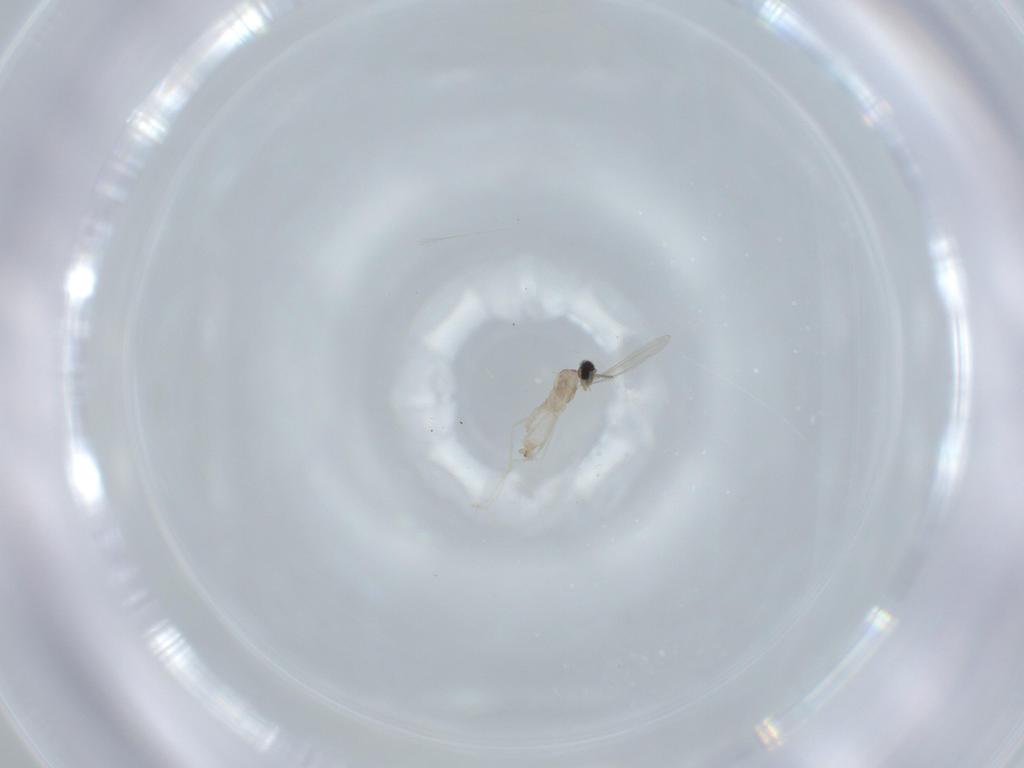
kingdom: Animalia
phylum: Arthropoda
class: Insecta
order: Diptera
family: Cecidomyiidae
